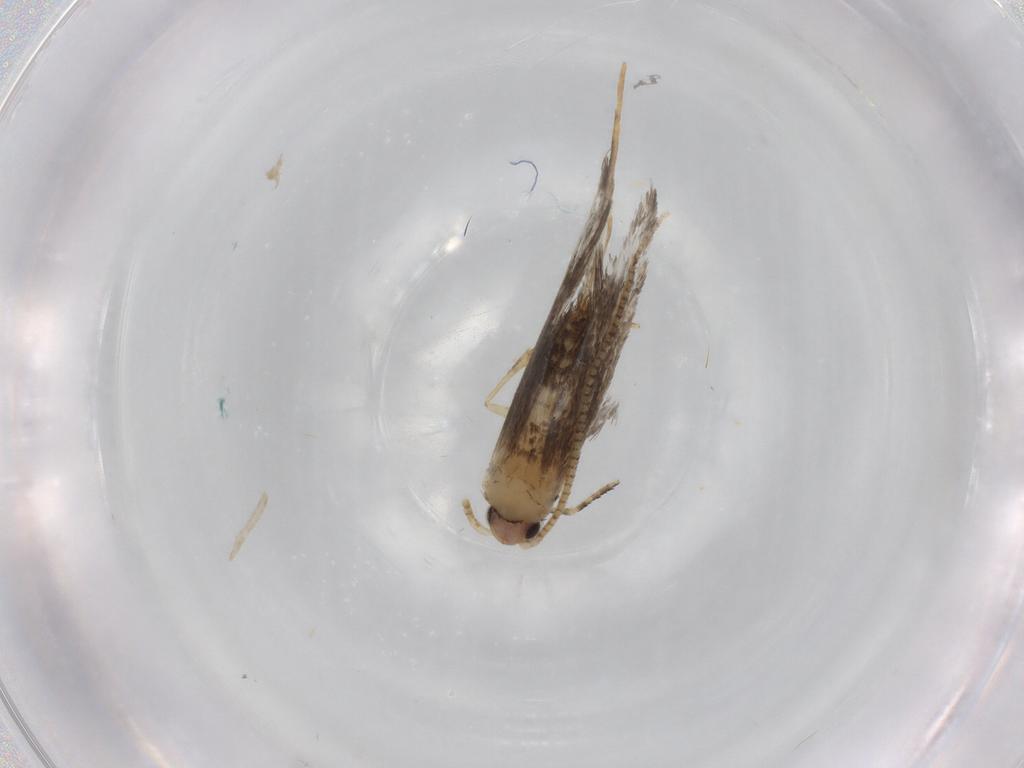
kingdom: Animalia
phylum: Arthropoda
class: Insecta
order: Lepidoptera
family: Tineidae
